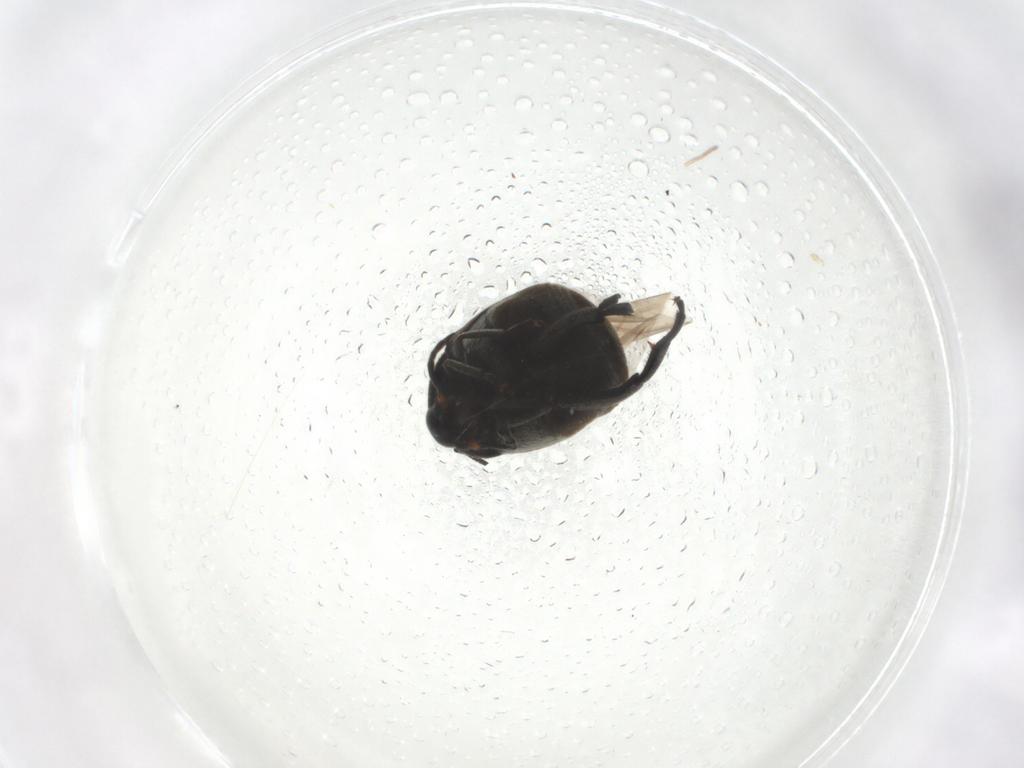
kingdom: Animalia
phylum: Arthropoda
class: Insecta
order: Coleoptera
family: Chrysomelidae
